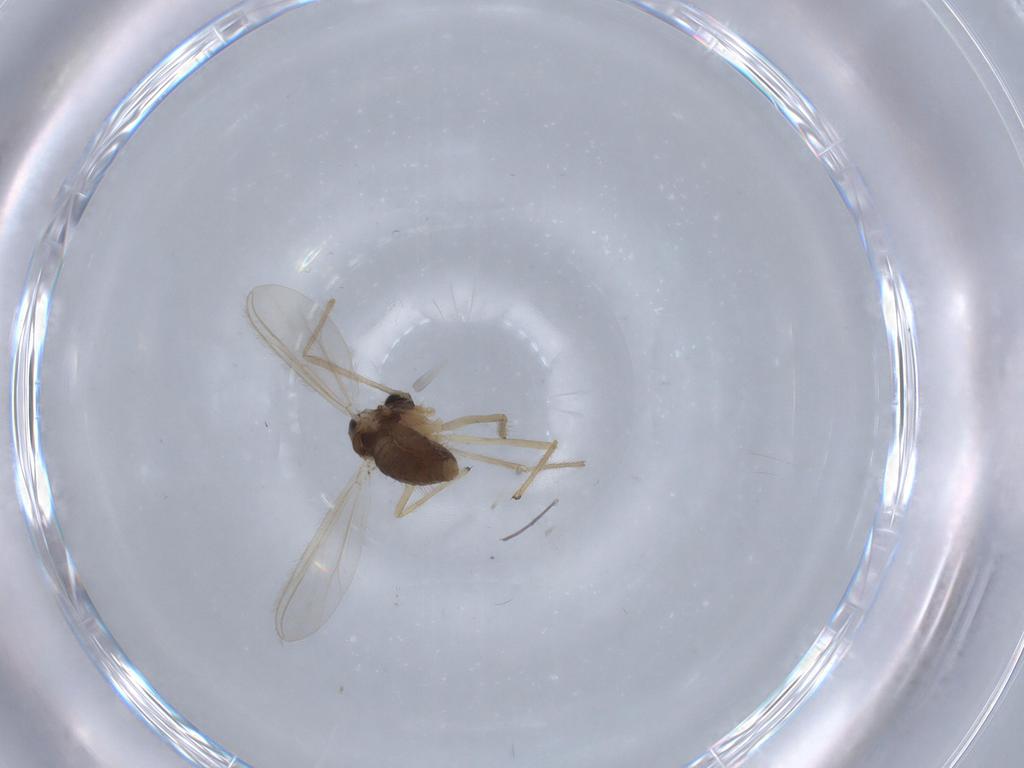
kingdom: Animalia
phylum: Arthropoda
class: Insecta
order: Diptera
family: Chironomidae
